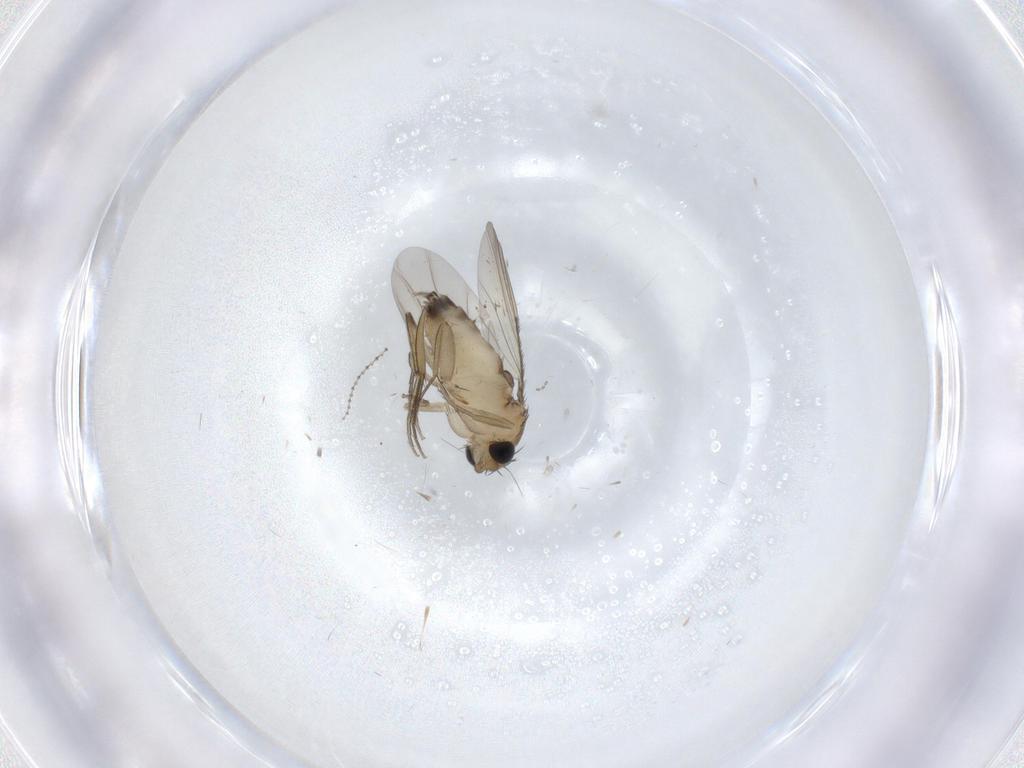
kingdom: Animalia
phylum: Arthropoda
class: Insecta
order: Diptera
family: Phoridae
